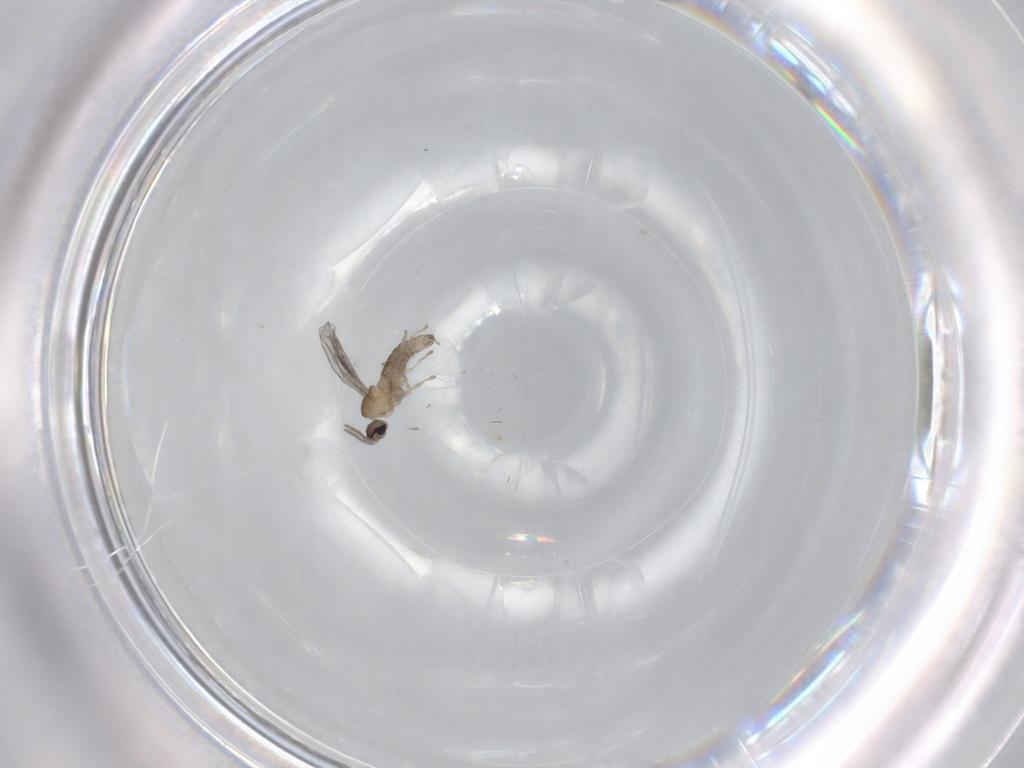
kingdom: Animalia
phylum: Arthropoda
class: Insecta
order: Diptera
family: Cecidomyiidae
